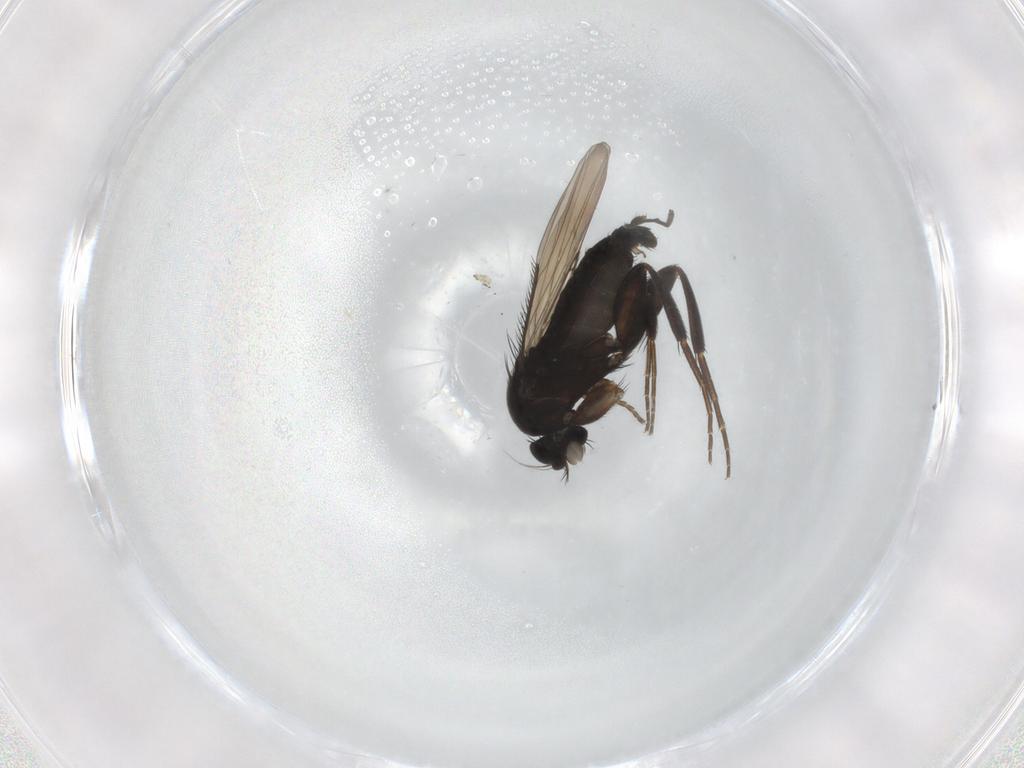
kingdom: Animalia
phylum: Arthropoda
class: Insecta
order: Diptera
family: Phoridae
